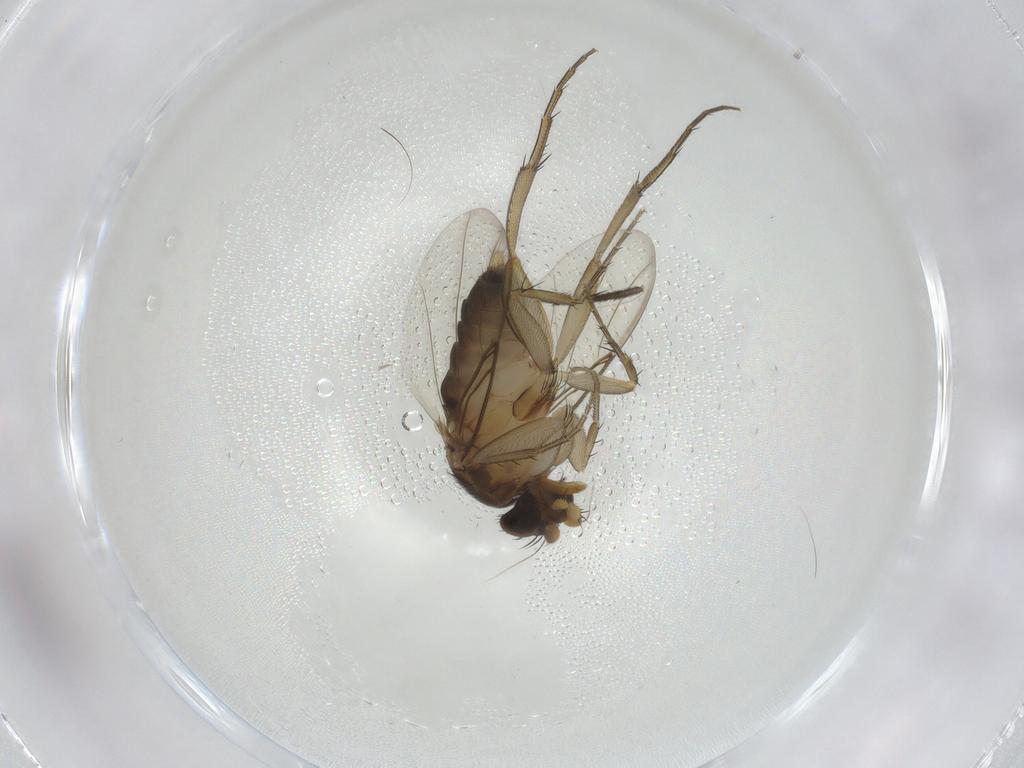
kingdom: Animalia
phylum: Arthropoda
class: Insecta
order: Diptera
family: Phoridae
